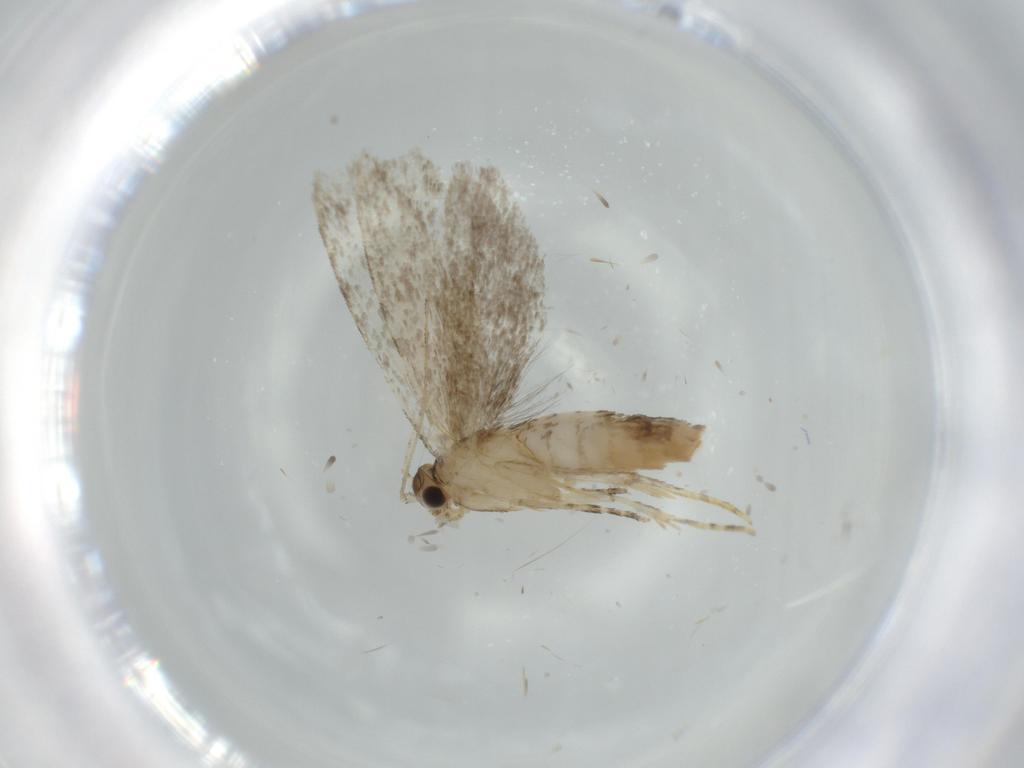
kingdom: Animalia
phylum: Arthropoda
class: Insecta
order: Lepidoptera
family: Tineidae
